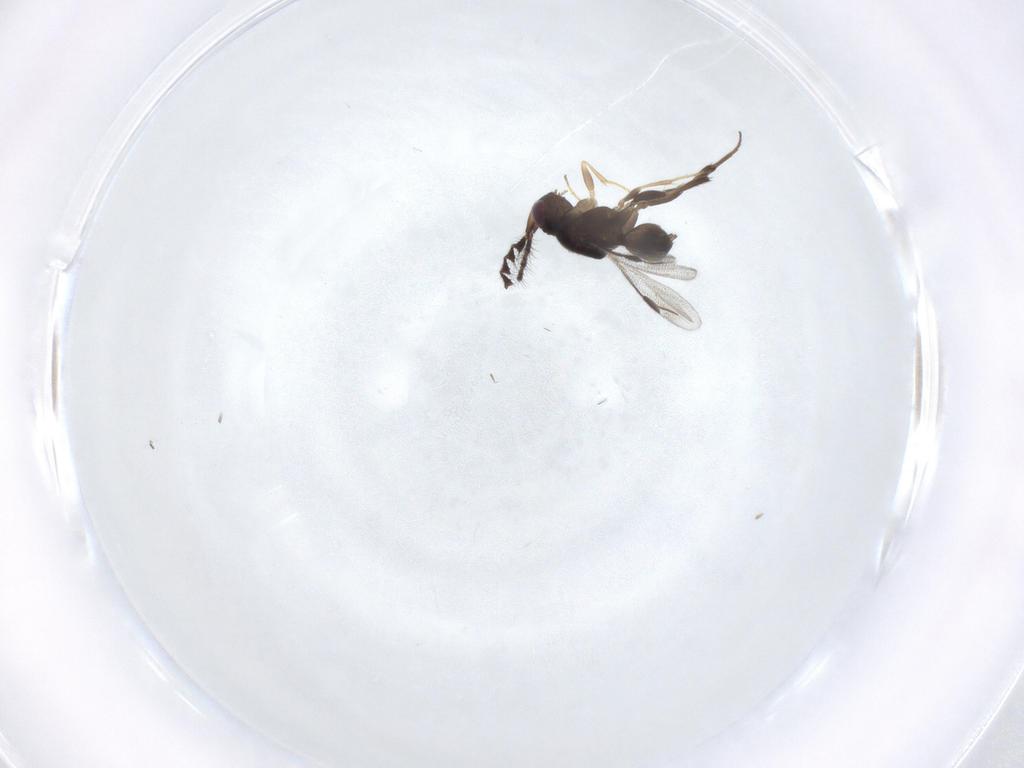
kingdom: Animalia
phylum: Arthropoda
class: Insecta
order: Hymenoptera
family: Megaspilidae
